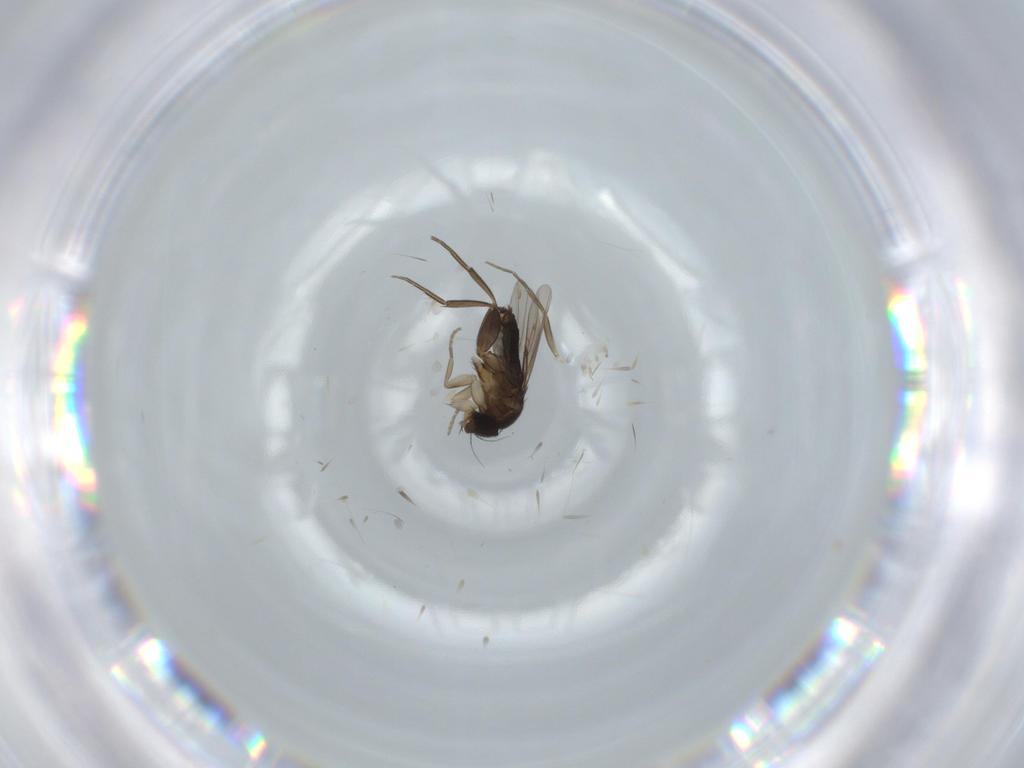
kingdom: Animalia
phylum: Arthropoda
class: Insecta
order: Diptera
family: Phoridae
